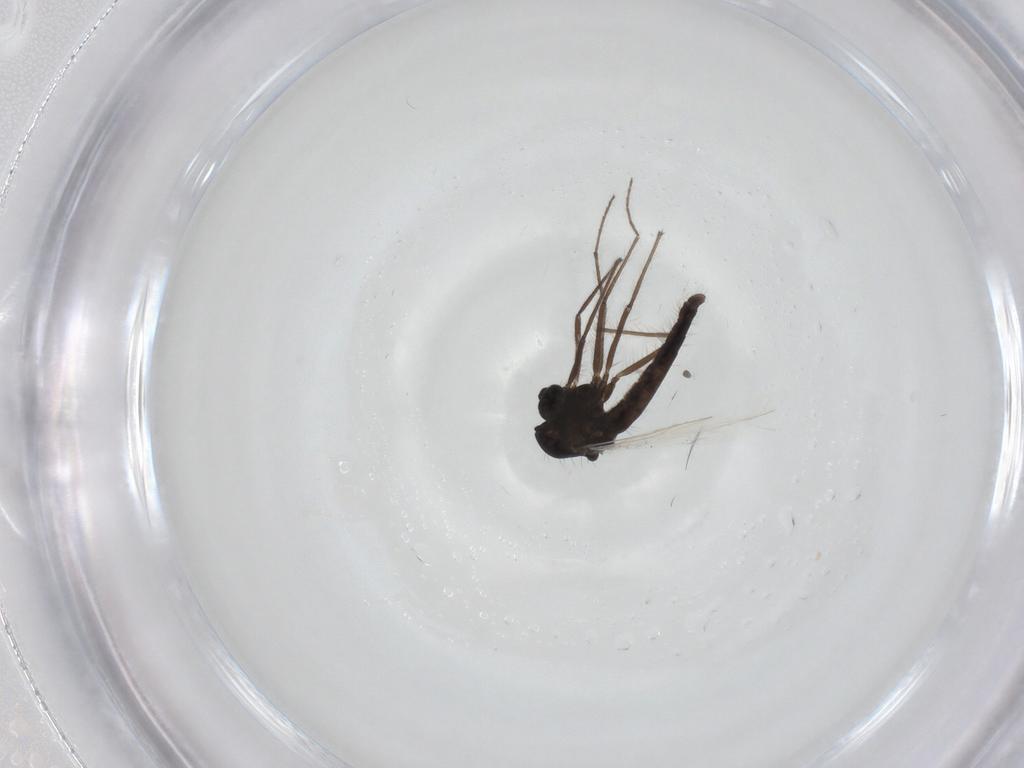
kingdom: Animalia
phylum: Arthropoda
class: Insecta
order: Diptera
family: Chironomidae
